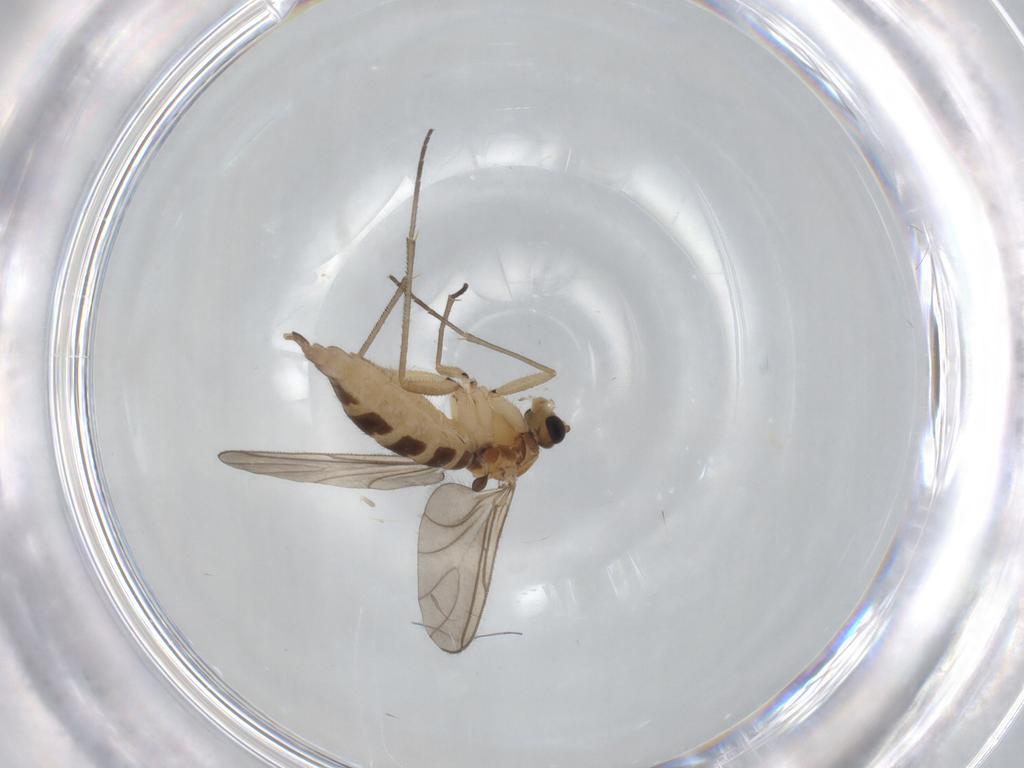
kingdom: Animalia
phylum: Arthropoda
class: Insecta
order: Diptera
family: Sciaridae
